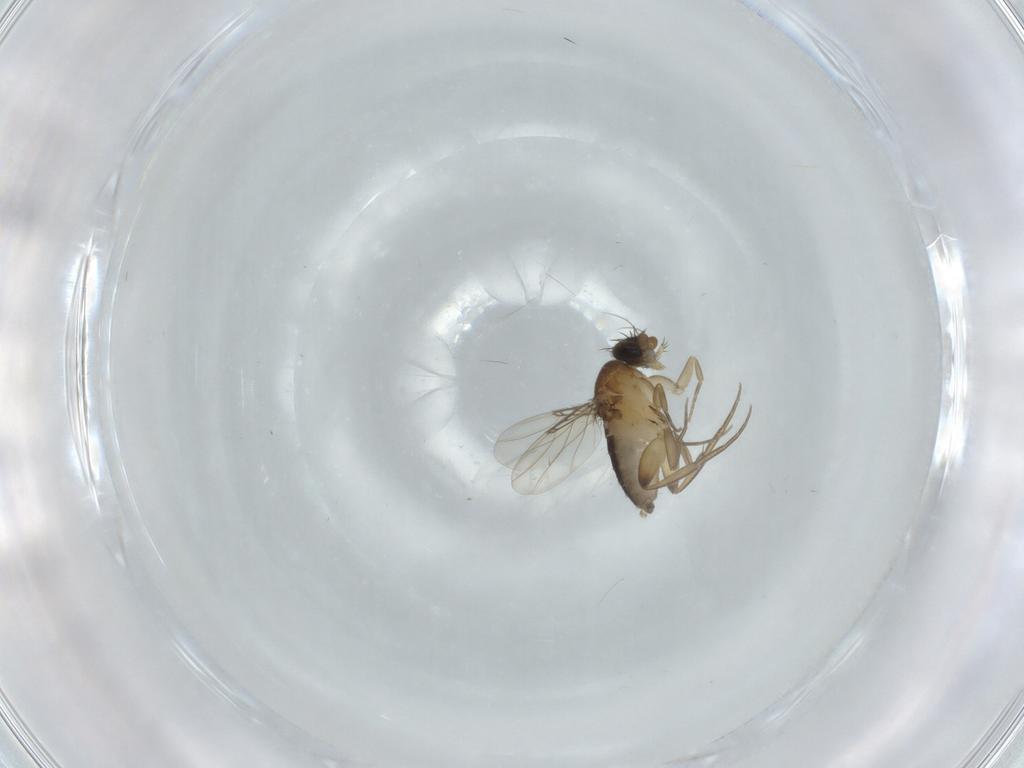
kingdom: Animalia
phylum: Arthropoda
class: Insecta
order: Diptera
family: Phoridae
